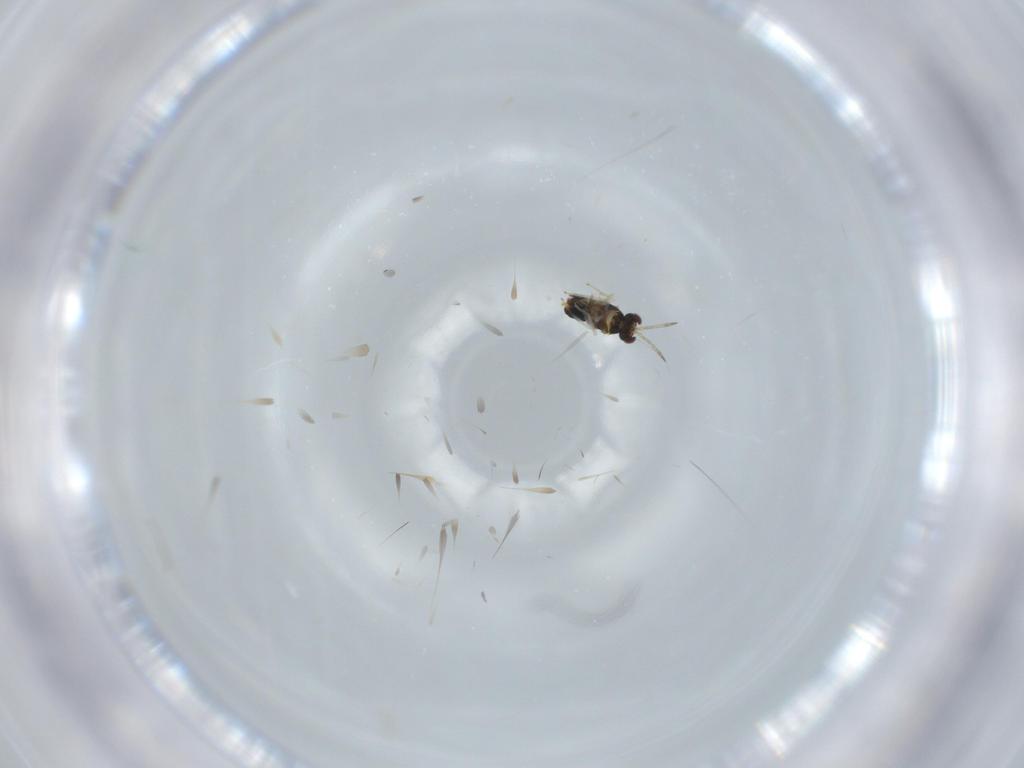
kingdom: Animalia
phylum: Arthropoda
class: Insecta
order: Hymenoptera
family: Aphelinidae
